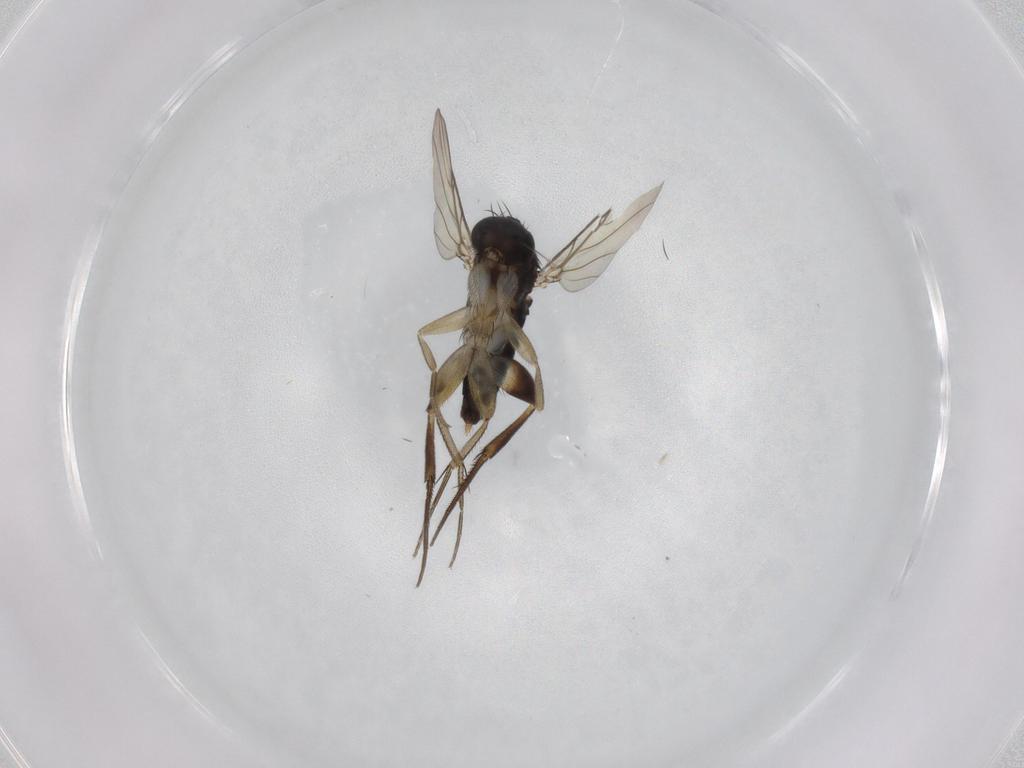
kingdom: Animalia
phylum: Arthropoda
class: Insecta
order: Diptera
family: Phoridae
